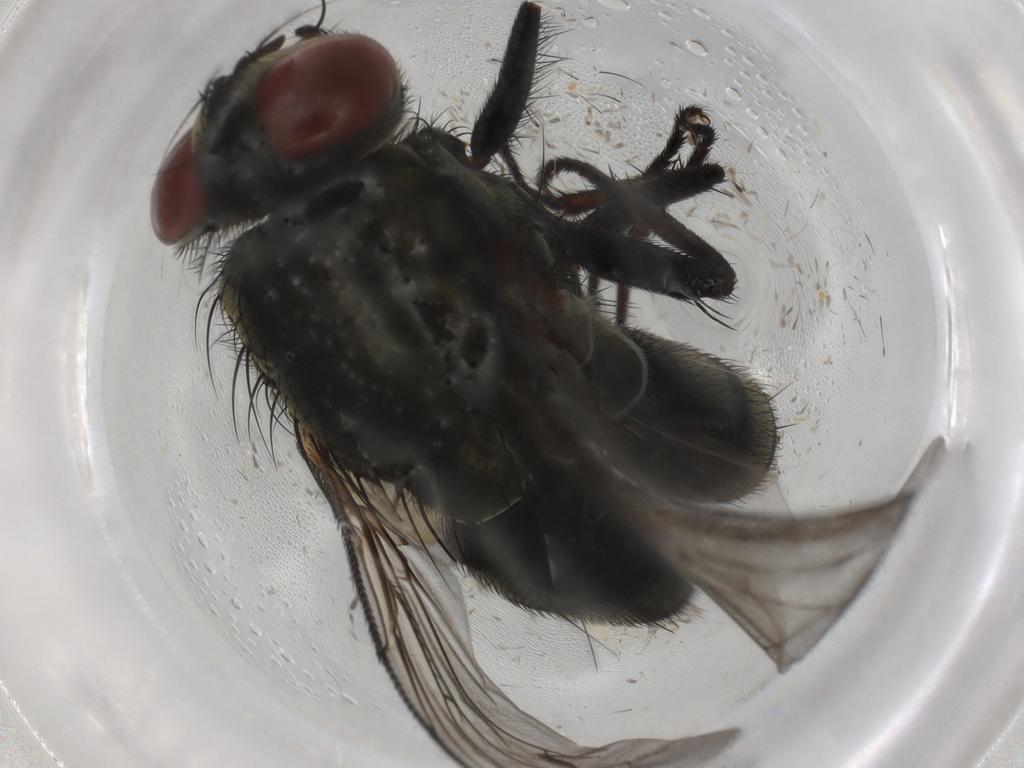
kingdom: Animalia
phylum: Arthropoda
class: Insecta
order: Diptera
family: Sarcophagidae
